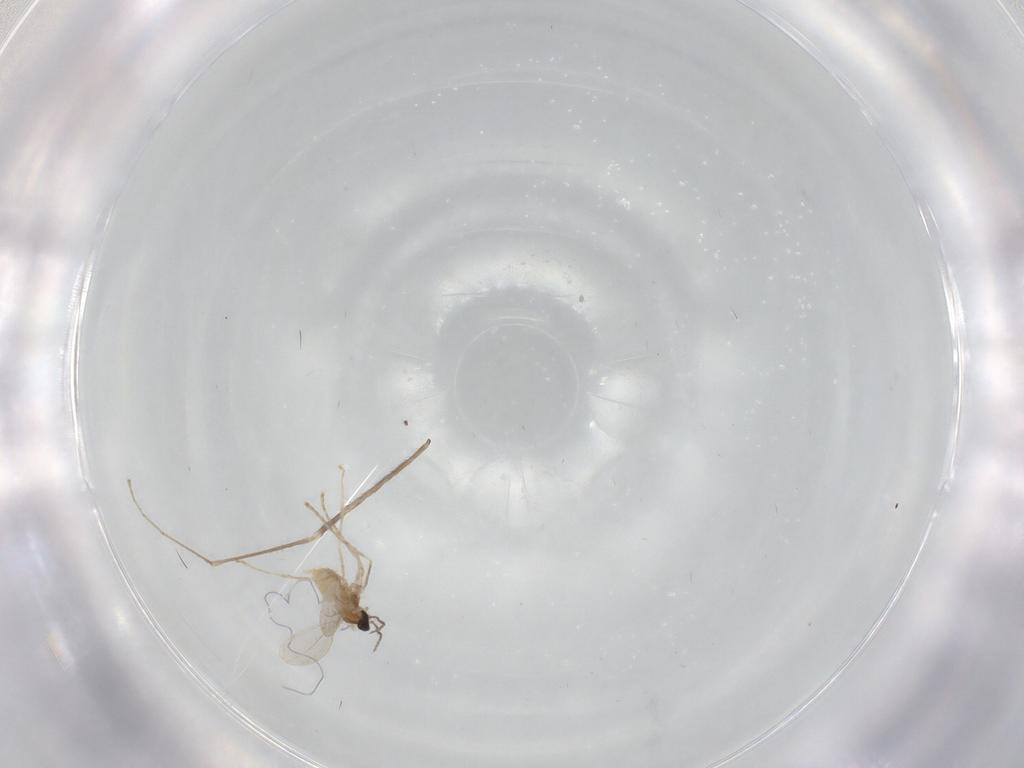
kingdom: Animalia
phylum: Arthropoda
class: Insecta
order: Diptera
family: Cecidomyiidae
